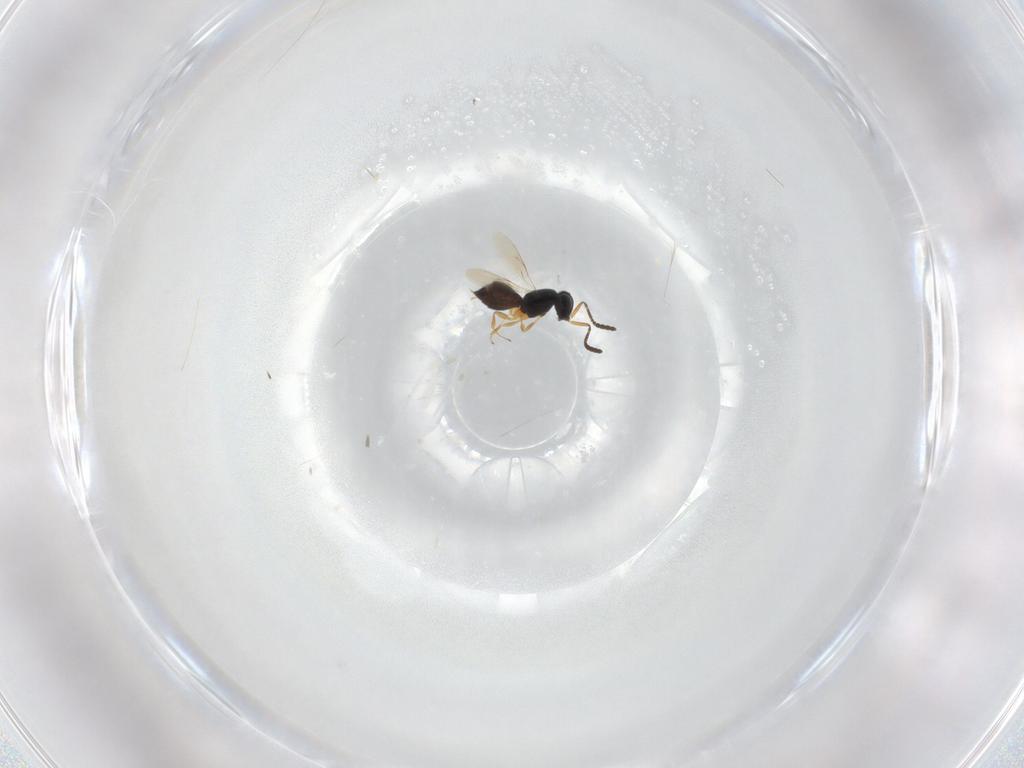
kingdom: Animalia
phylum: Arthropoda
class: Insecta
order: Hymenoptera
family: Scelionidae
